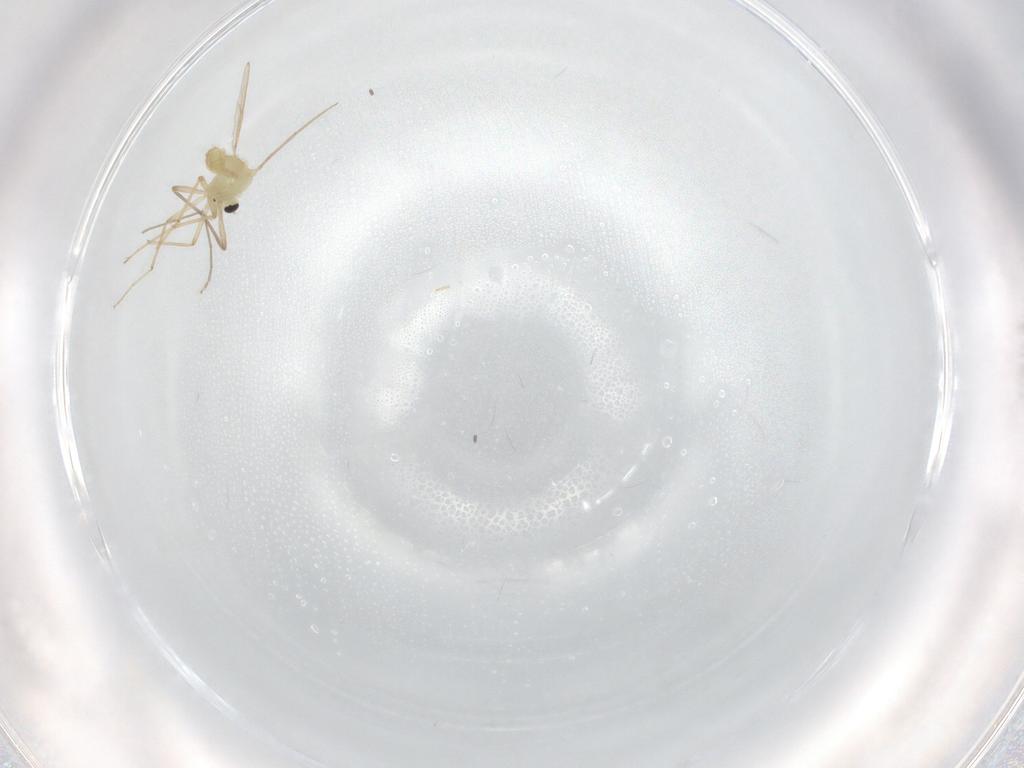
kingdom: Animalia
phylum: Arthropoda
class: Insecta
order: Diptera
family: Chironomidae
